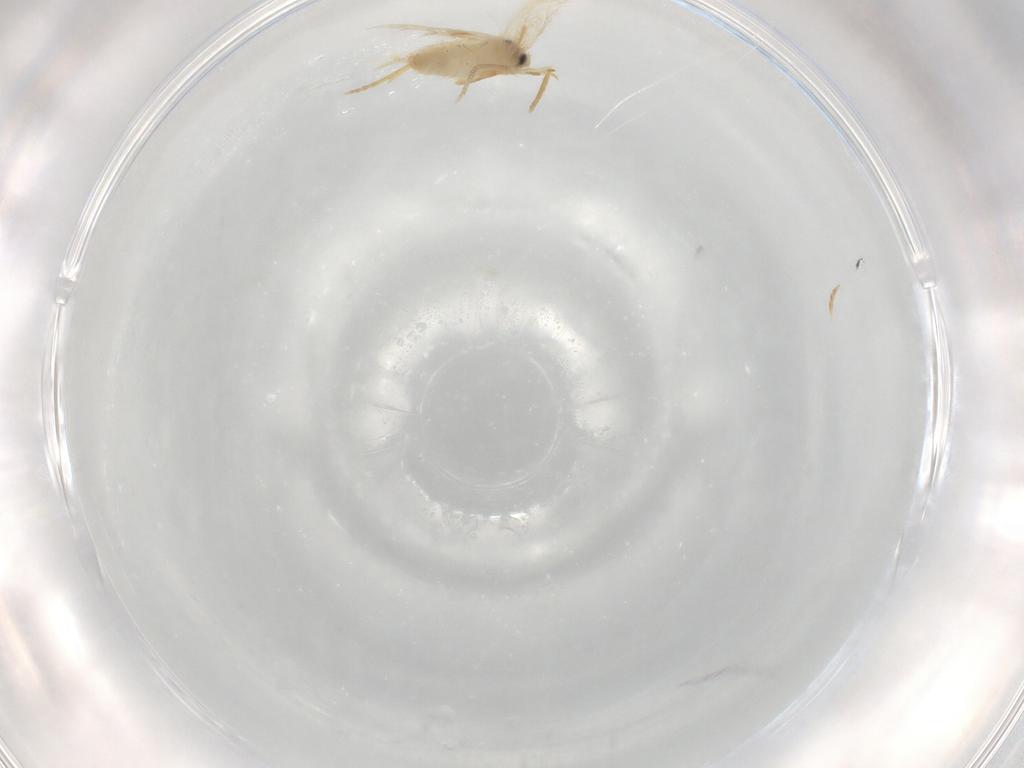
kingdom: Animalia
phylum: Arthropoda
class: Insecta
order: Lepidoptera
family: Nepticulidae
